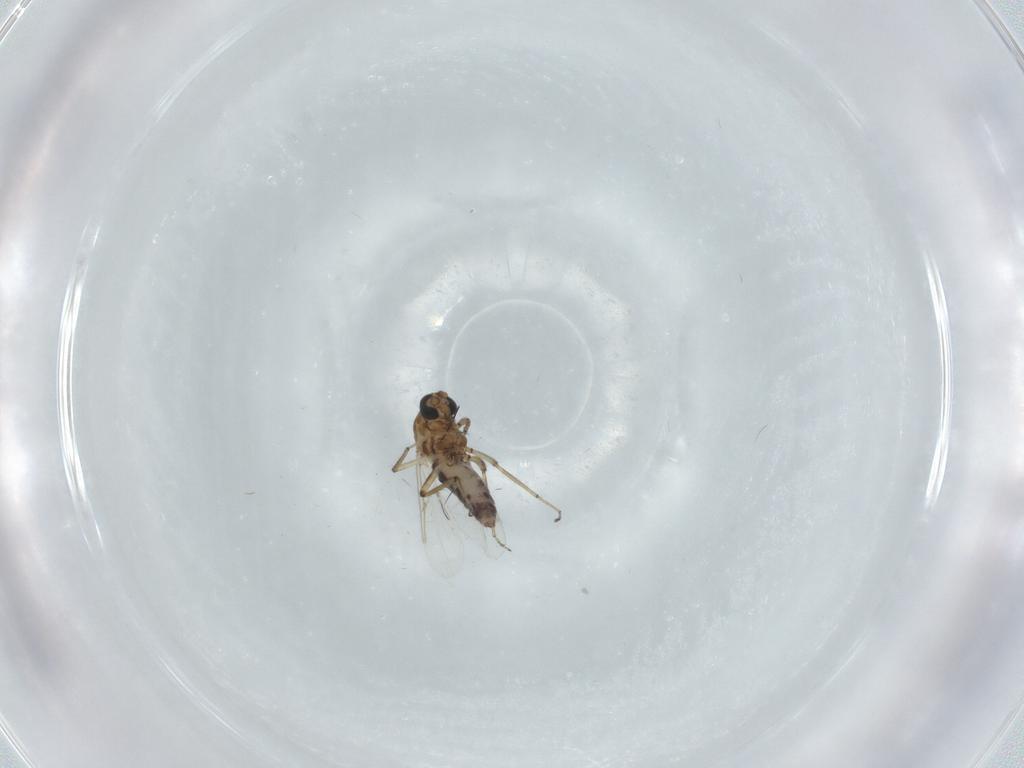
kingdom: Animalia
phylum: Arthropoda
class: Insecta
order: Diptera
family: Ceratopogonidae
